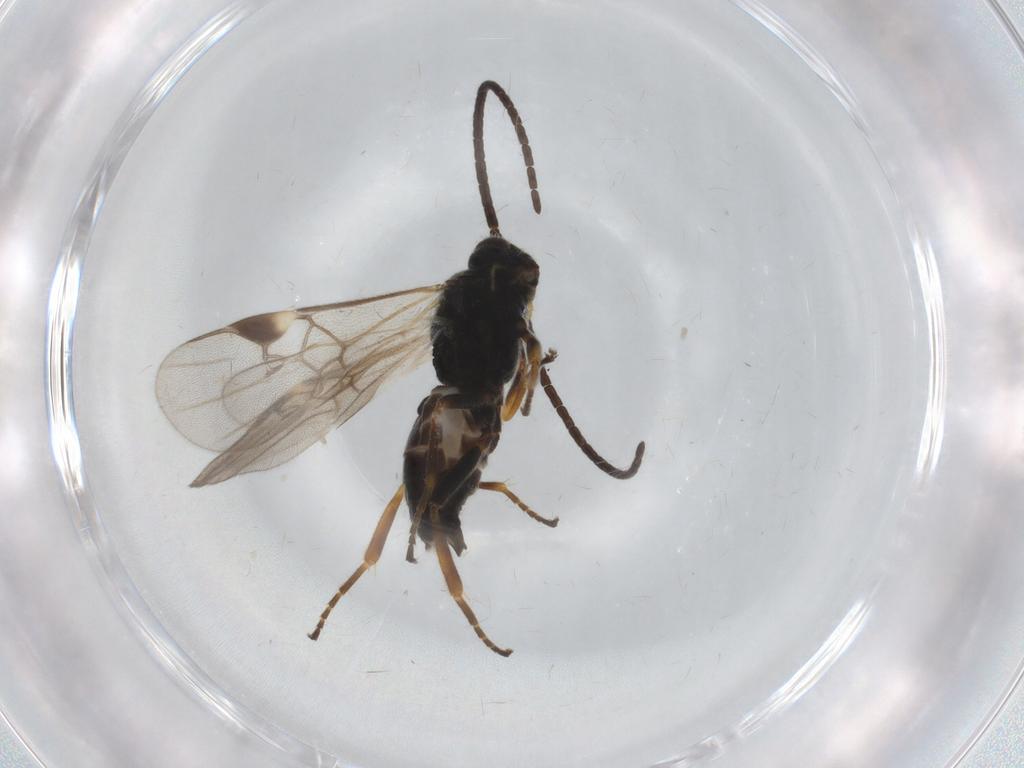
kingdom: Animalia
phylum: Arthropoda
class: Insecta
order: Hymenoptera
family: Braconidae
